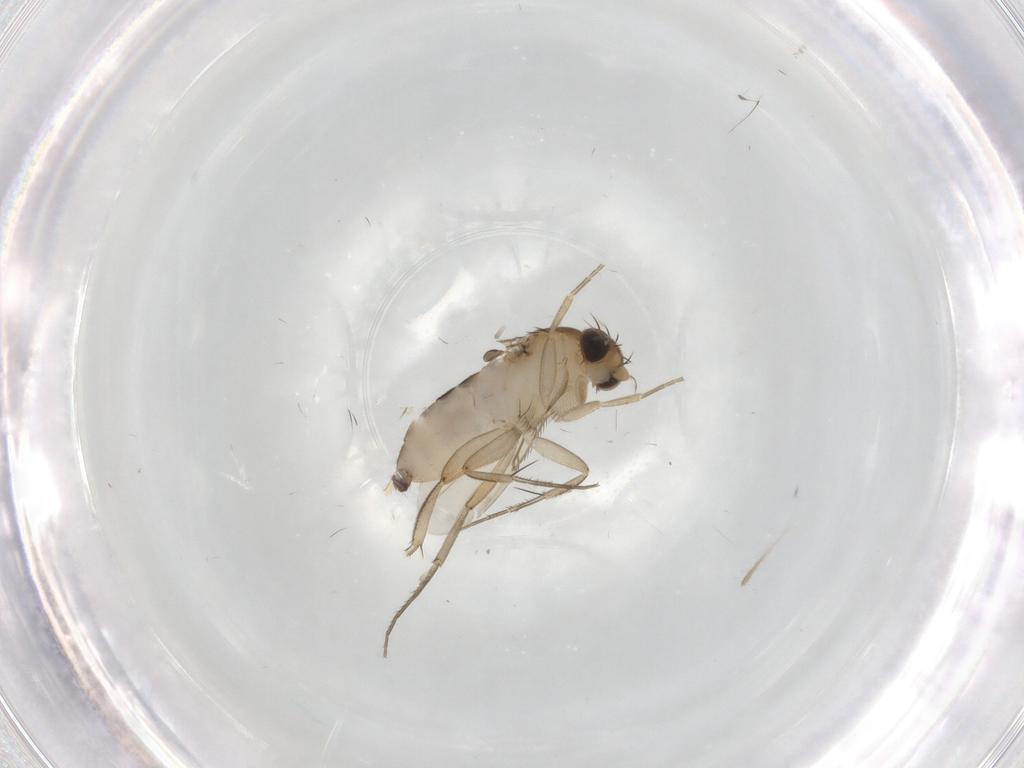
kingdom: Animalia
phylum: Arthropoda
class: Insecta
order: Diptera
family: Phoridae
